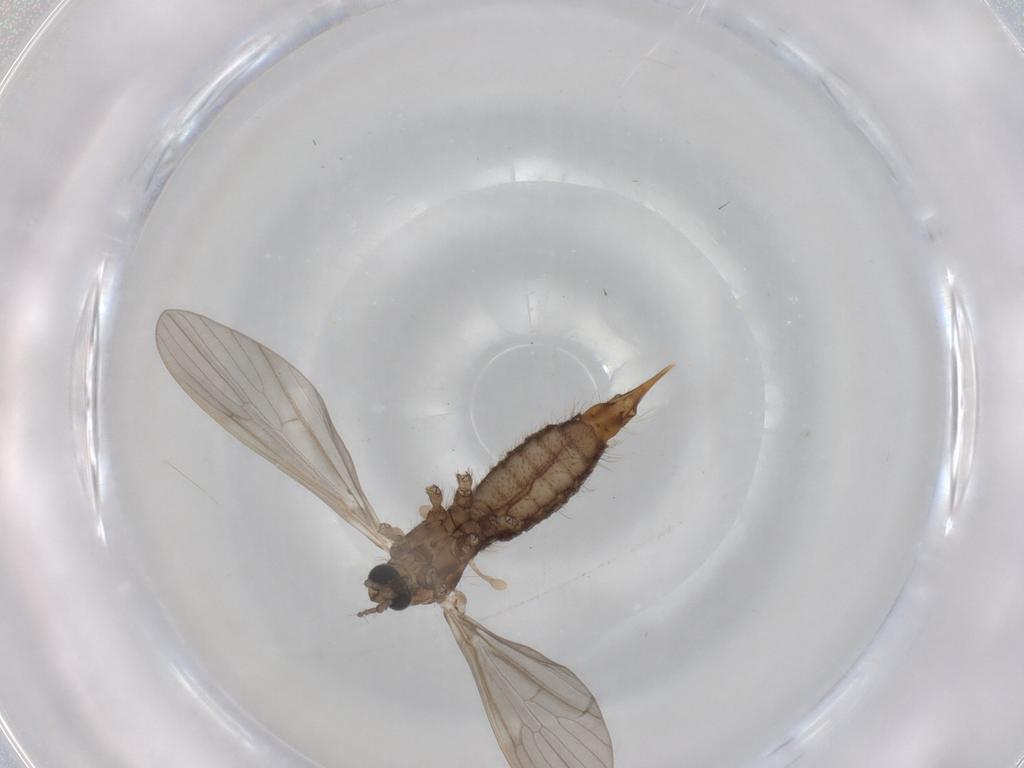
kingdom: Animalia
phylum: Arthropoda
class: Insecta
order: Diptera
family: Limoniidae
